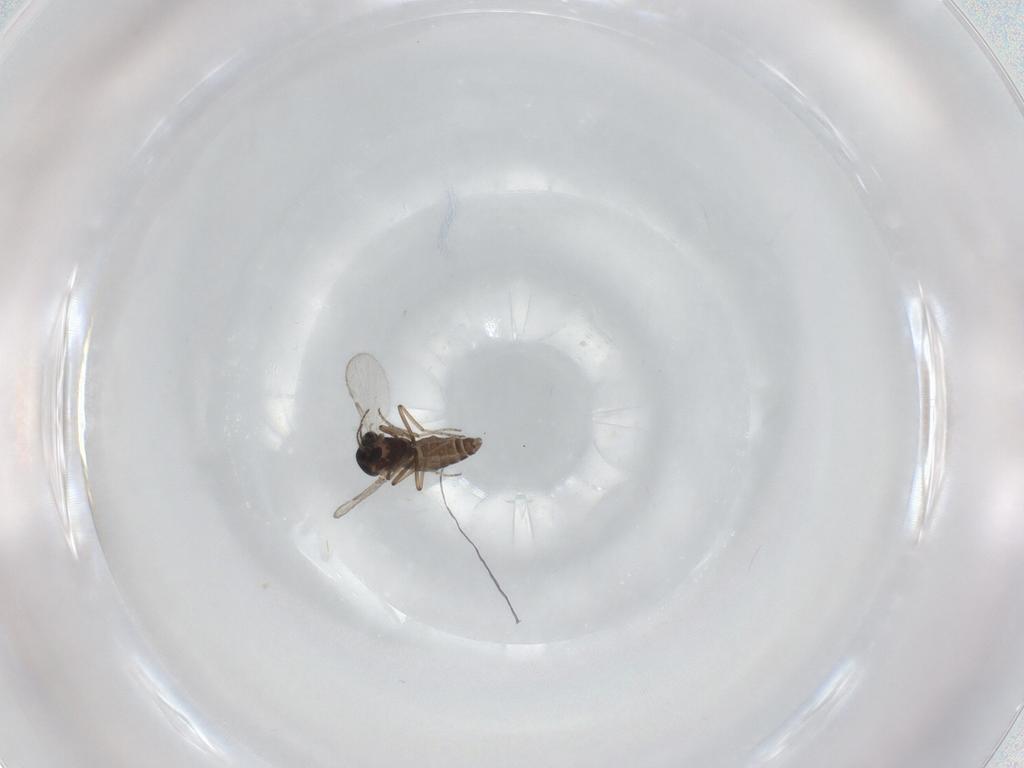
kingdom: Animalia
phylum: Arthropoda
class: Insecta
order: Diptera
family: Ceratopogonidae
